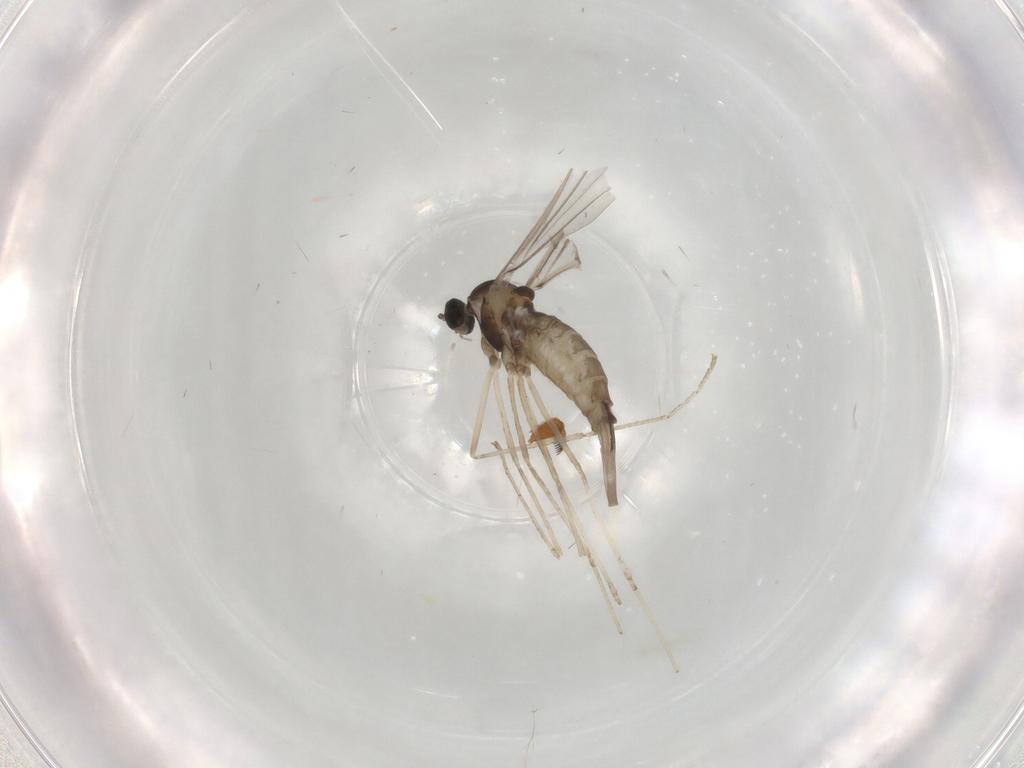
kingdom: Animalia
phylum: Arthropoda
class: Insecta
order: Diptera
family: Cecidomyiidae
